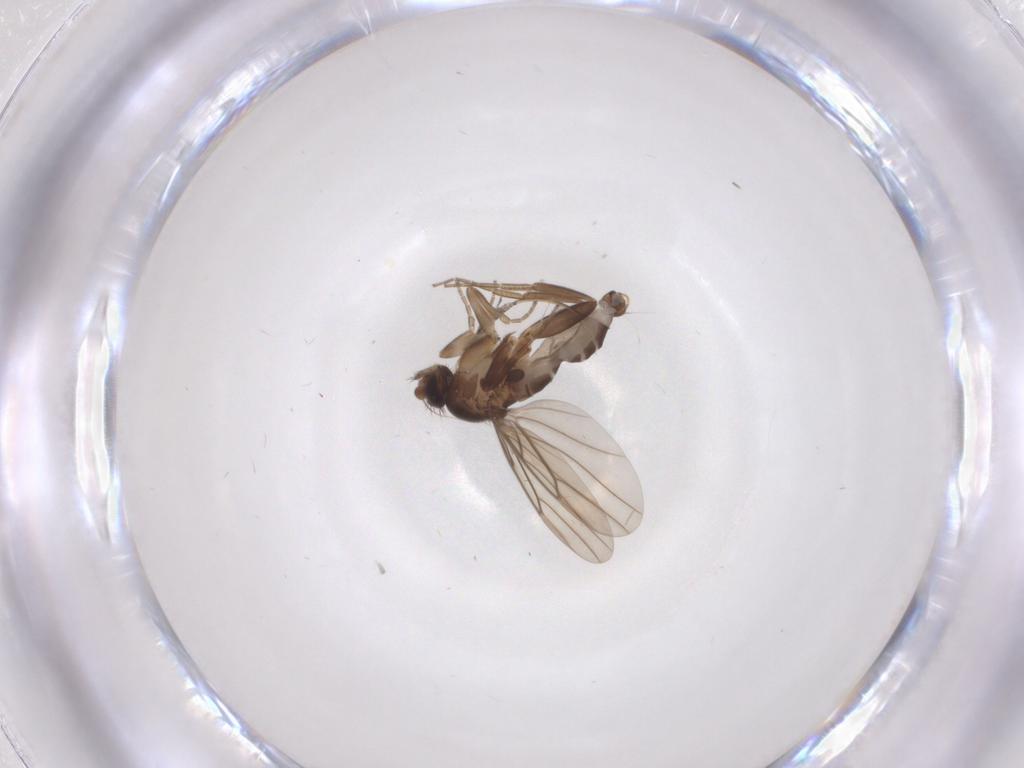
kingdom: Animalia
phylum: Arthropoda
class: Insecta
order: Diptera
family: Phoridae
